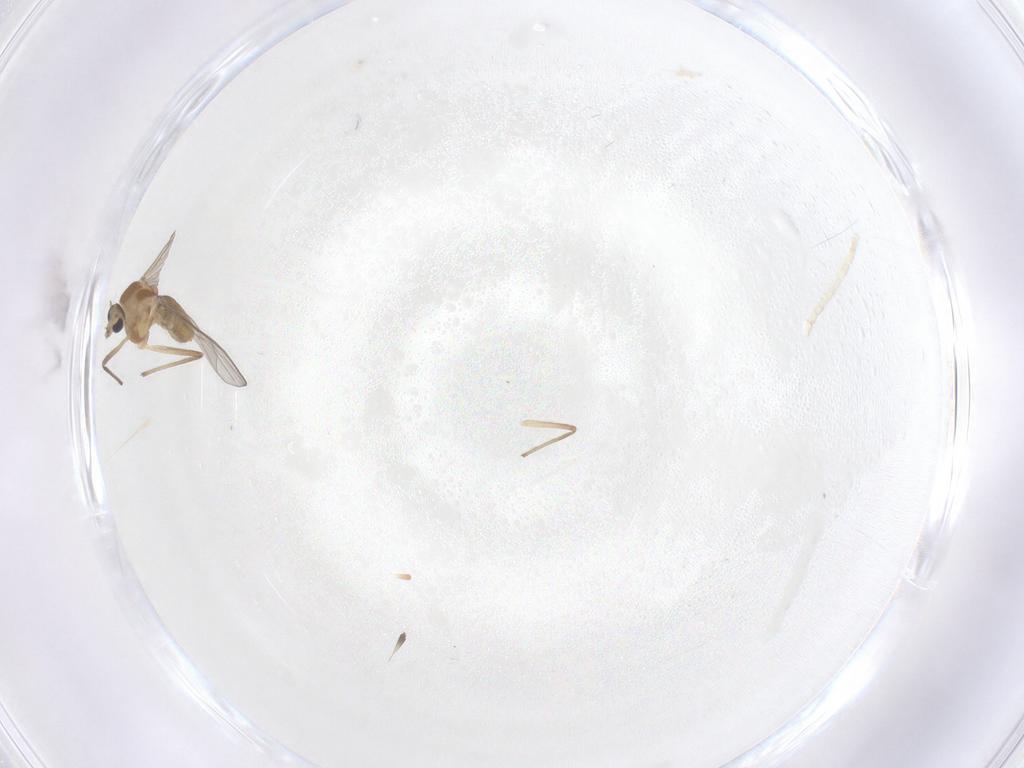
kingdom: Animalia
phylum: Arthropoda
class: Insecta
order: Diptera
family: Chironomidae
